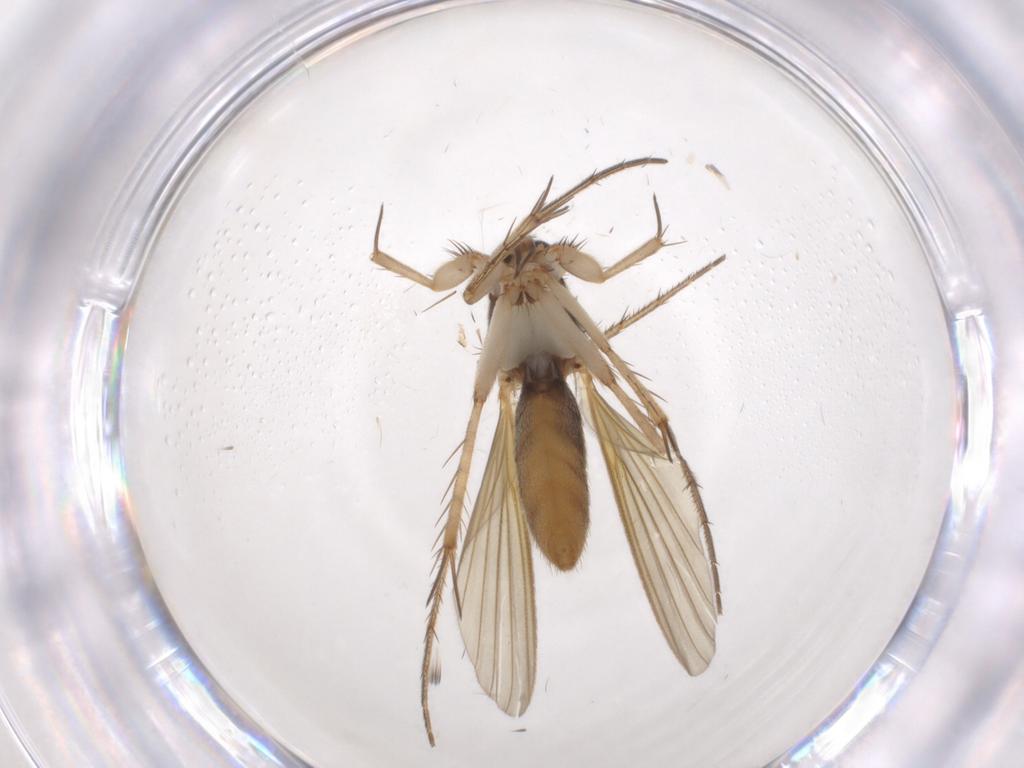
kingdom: Animalia
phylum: Arthropoda
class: Insecta
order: Diptera
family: Mycetophilidae
